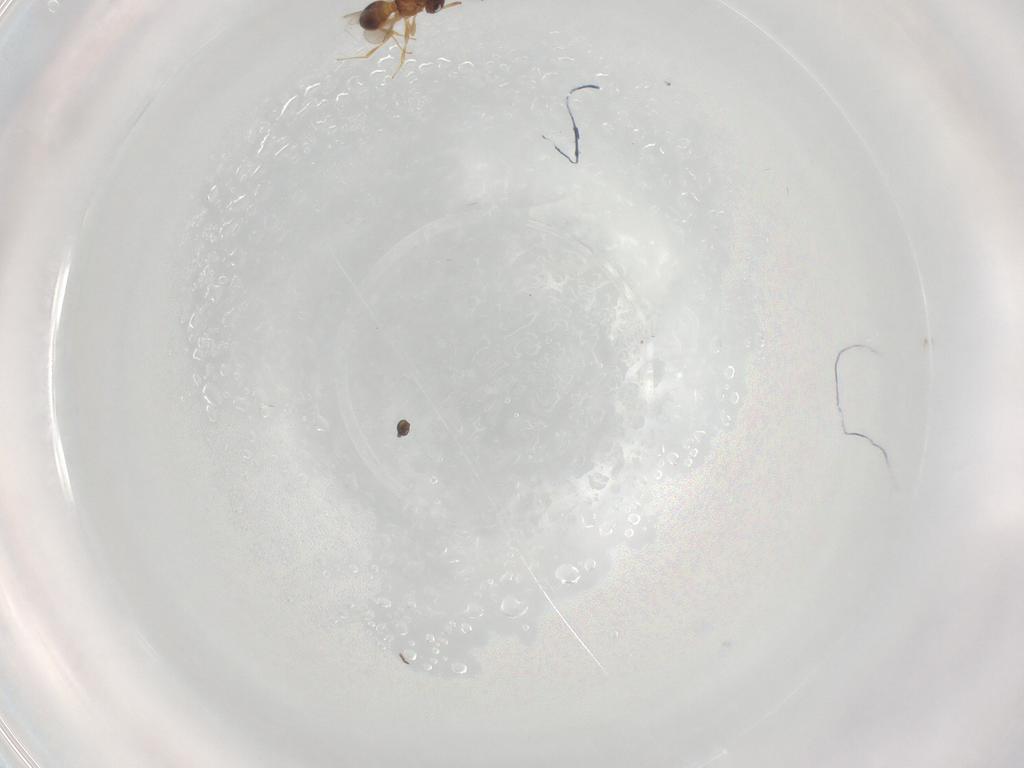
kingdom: Animalia
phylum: Arthropoda
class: Insecta
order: Hymenoptera
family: Scelionidae
